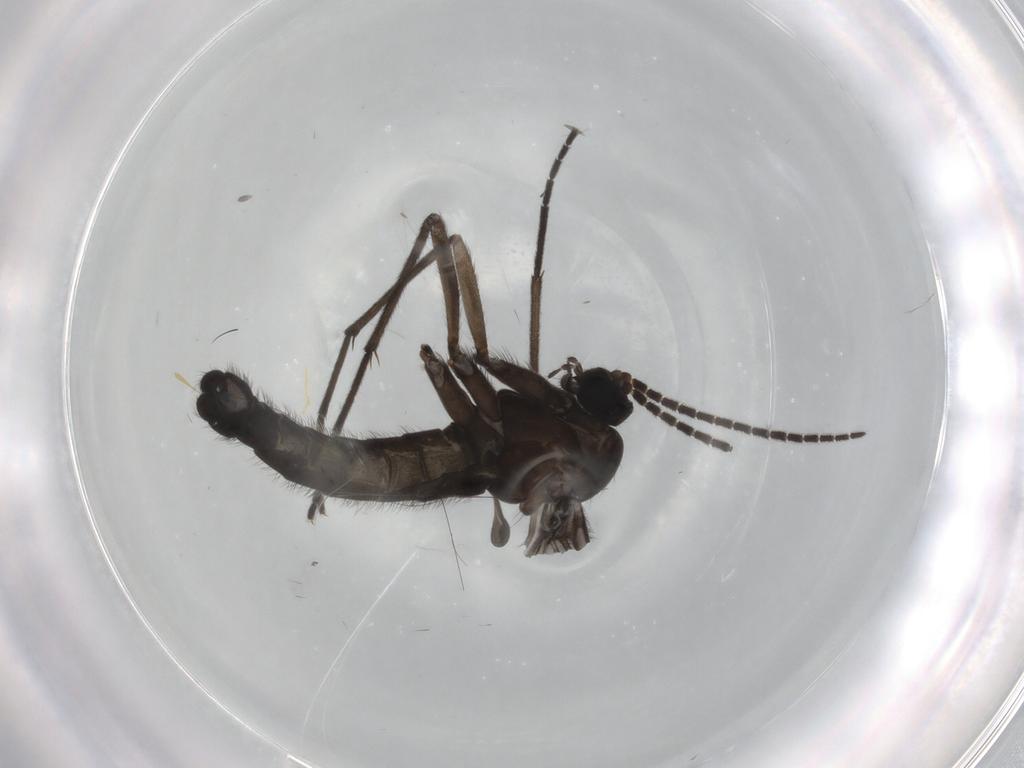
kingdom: Animalia
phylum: Arthropoda
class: Insecta
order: Diptera
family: Sciaridae
